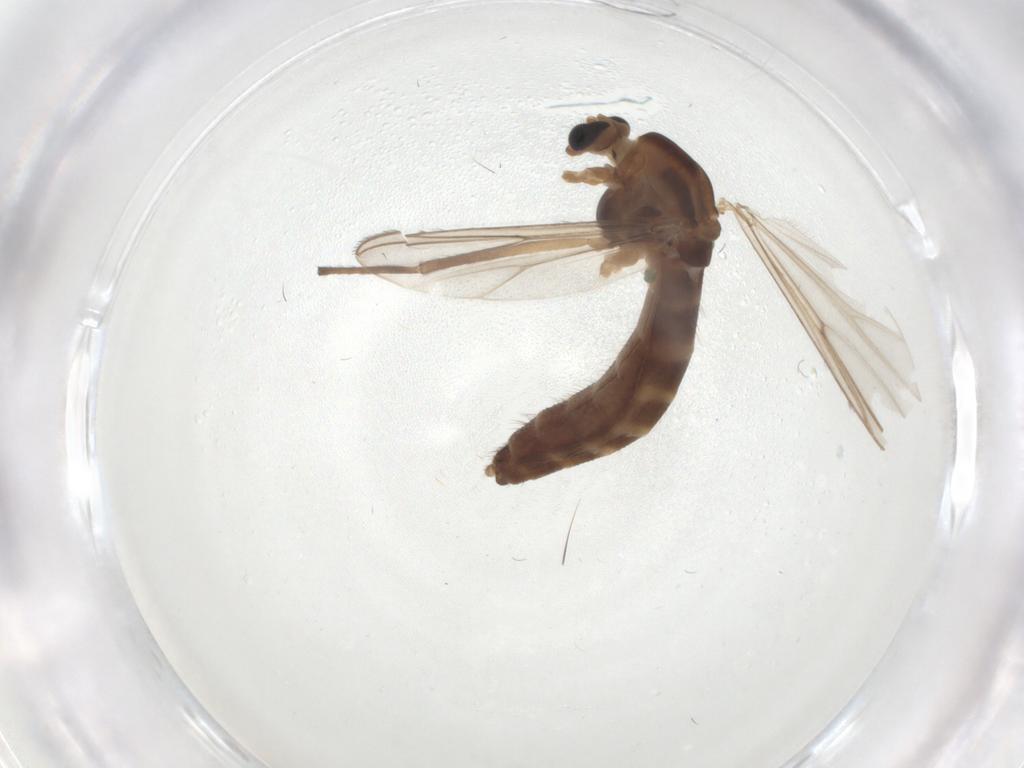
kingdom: Animalia
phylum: Arthropoda
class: Insecta
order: Diptera
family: Chironomidae
